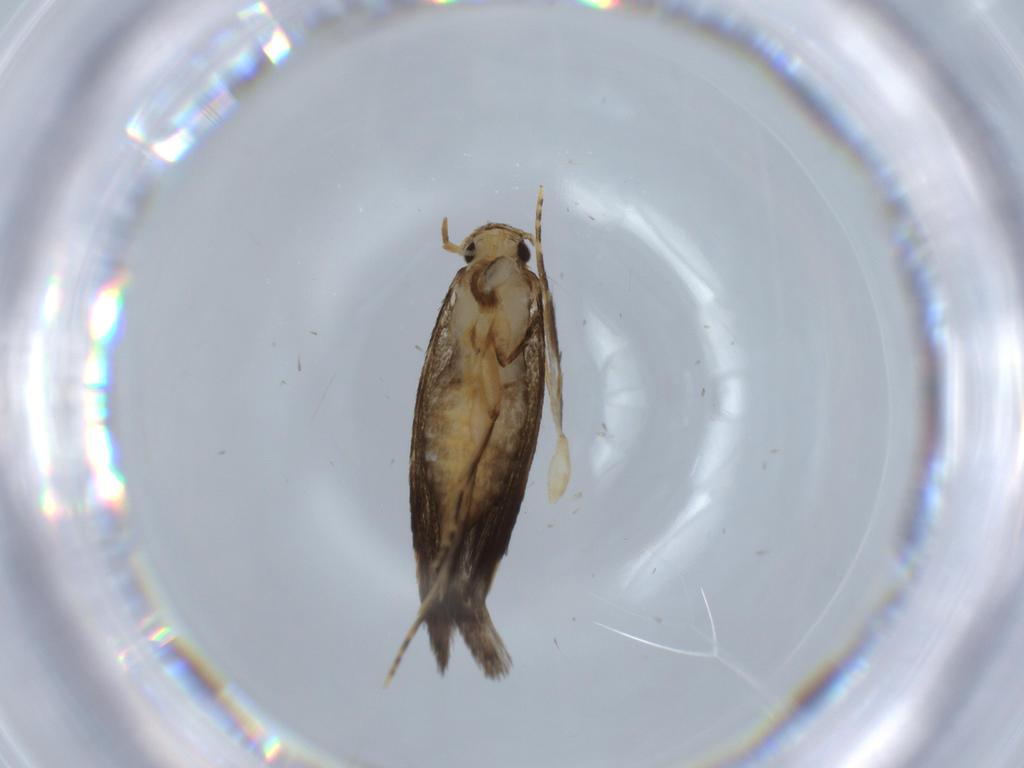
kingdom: Animalia
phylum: Arthropoda
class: Insecta
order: Lepidoptera
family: Tineidae
